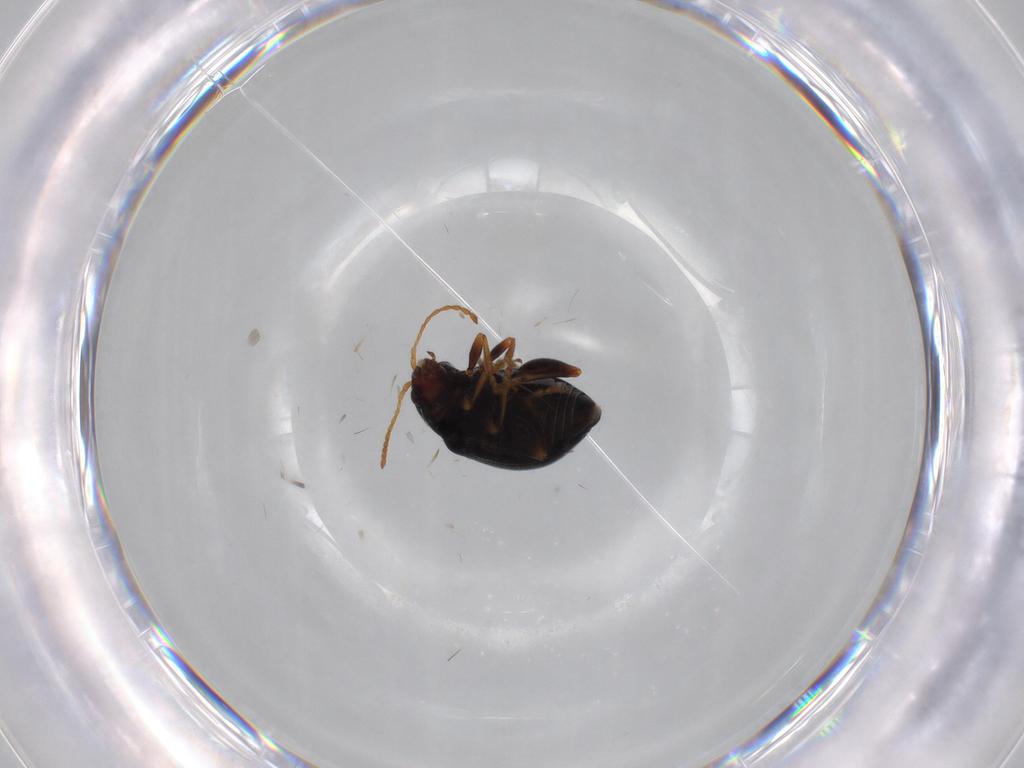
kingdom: Animalia
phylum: Arthropoda
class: Insecta
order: Coleoptera
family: Chrysomelidae
